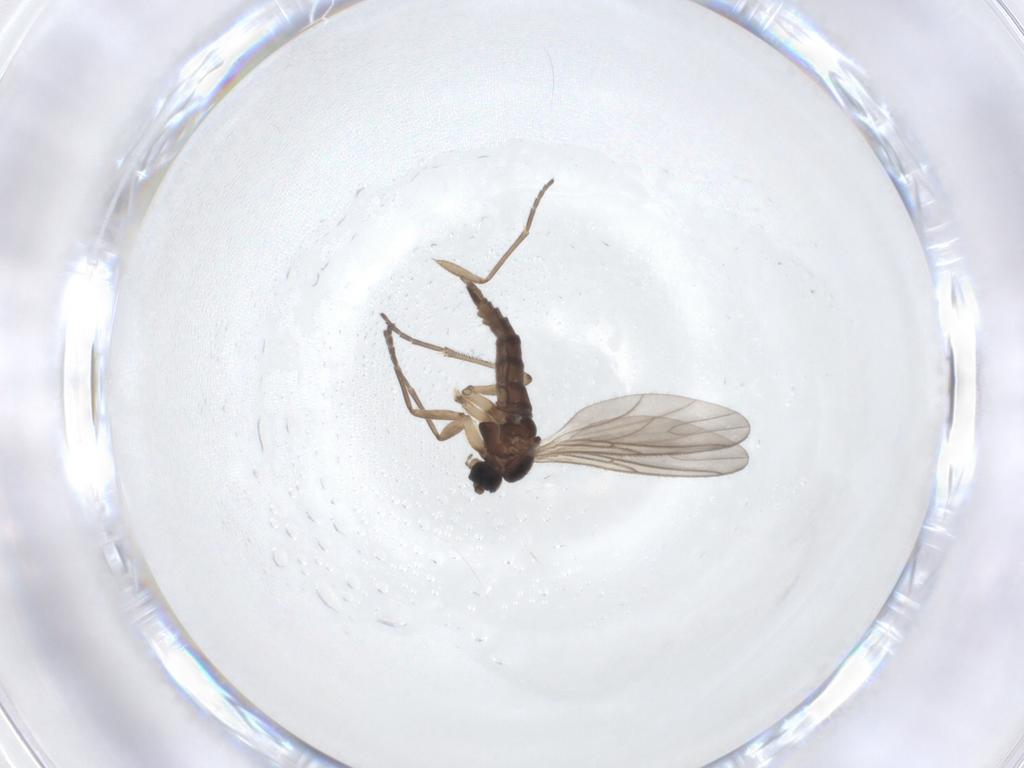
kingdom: Animalia
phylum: Arthropoda
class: Insecta
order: Diptera
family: Sciaridae
